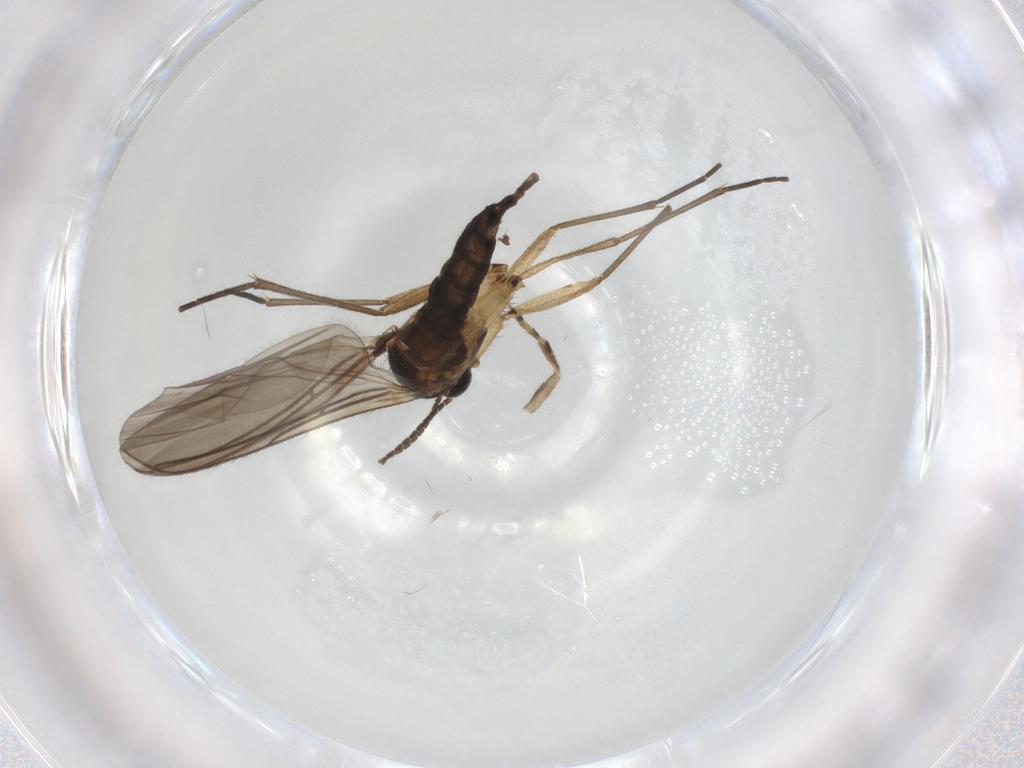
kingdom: Animalia
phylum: Arthropoda
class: Insecta
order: Diptera
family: Sciaridae
